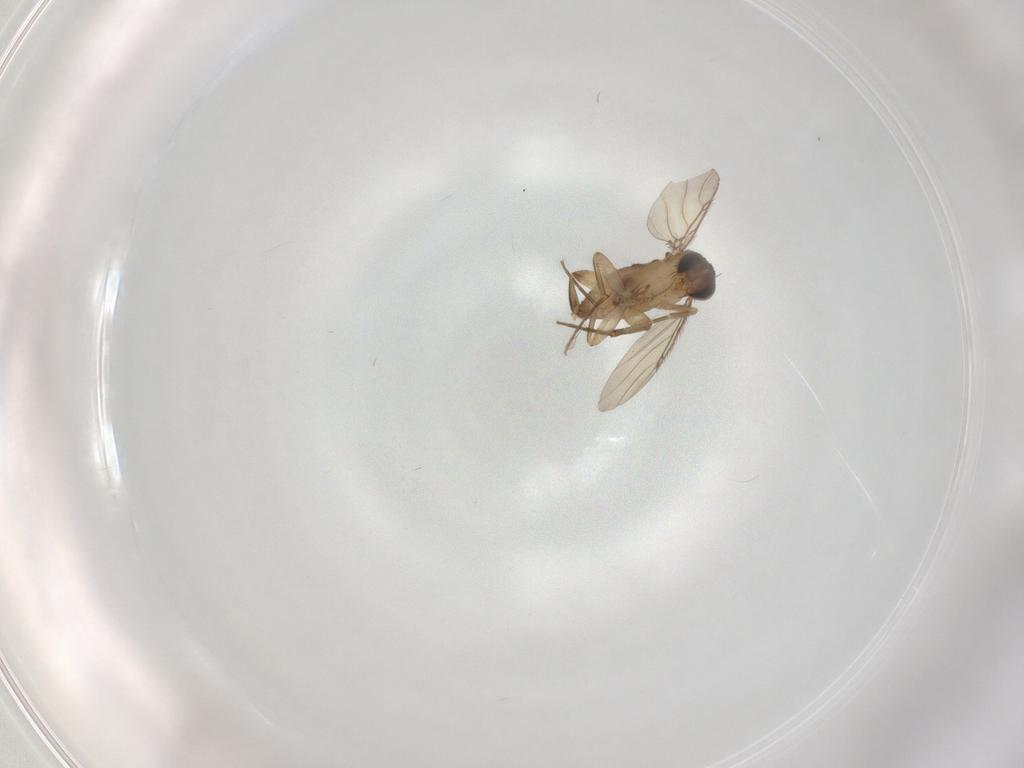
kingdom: Animalia
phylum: Arthropoda
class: Insecta
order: Diptera
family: Phoridae
